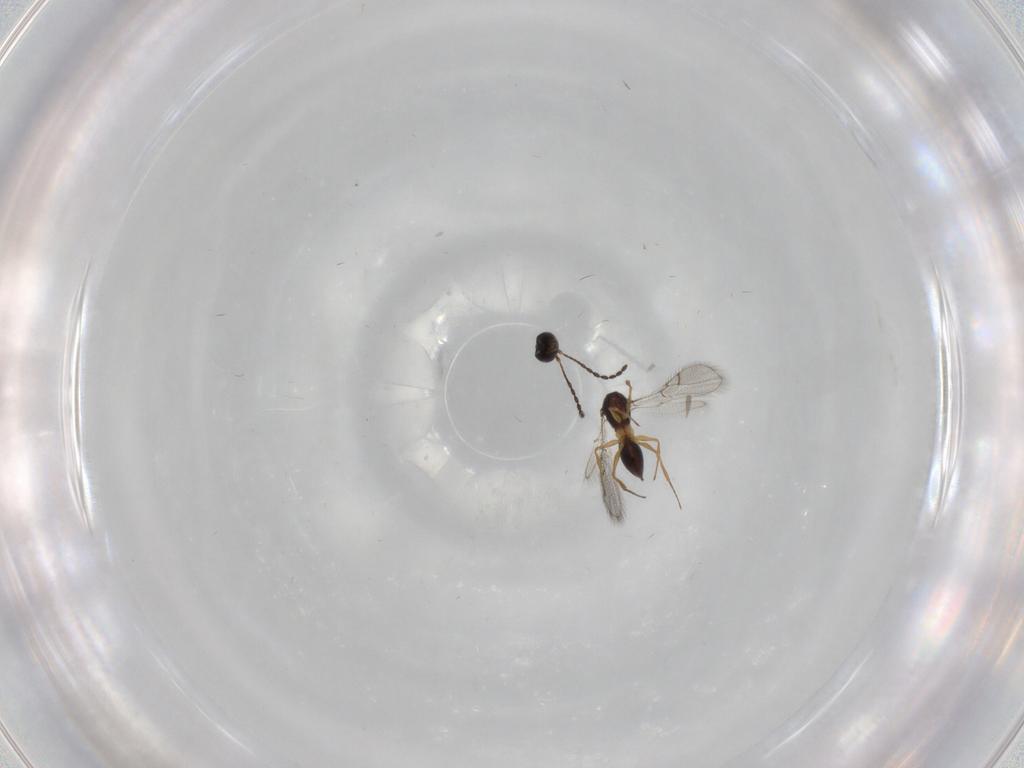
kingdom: Animalia
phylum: Arthropoda
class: Insecta
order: Hymenoptera
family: Figitidae
